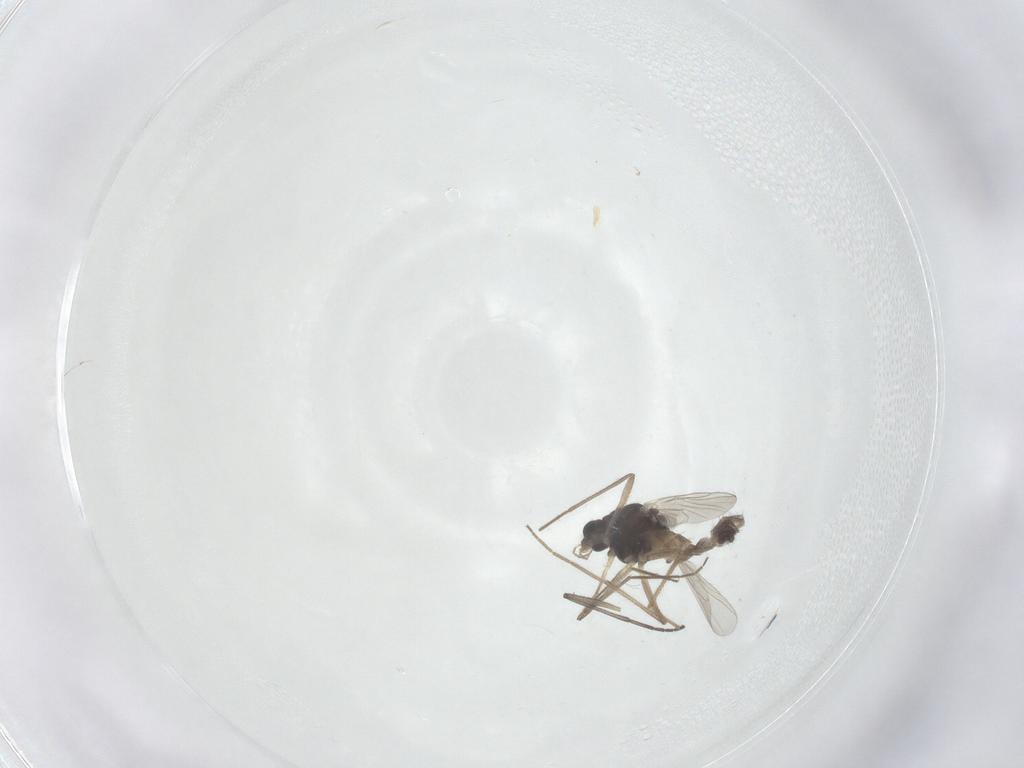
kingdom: Animalia
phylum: Arthropoda
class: Insecta
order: Diptera
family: Chironomidae
